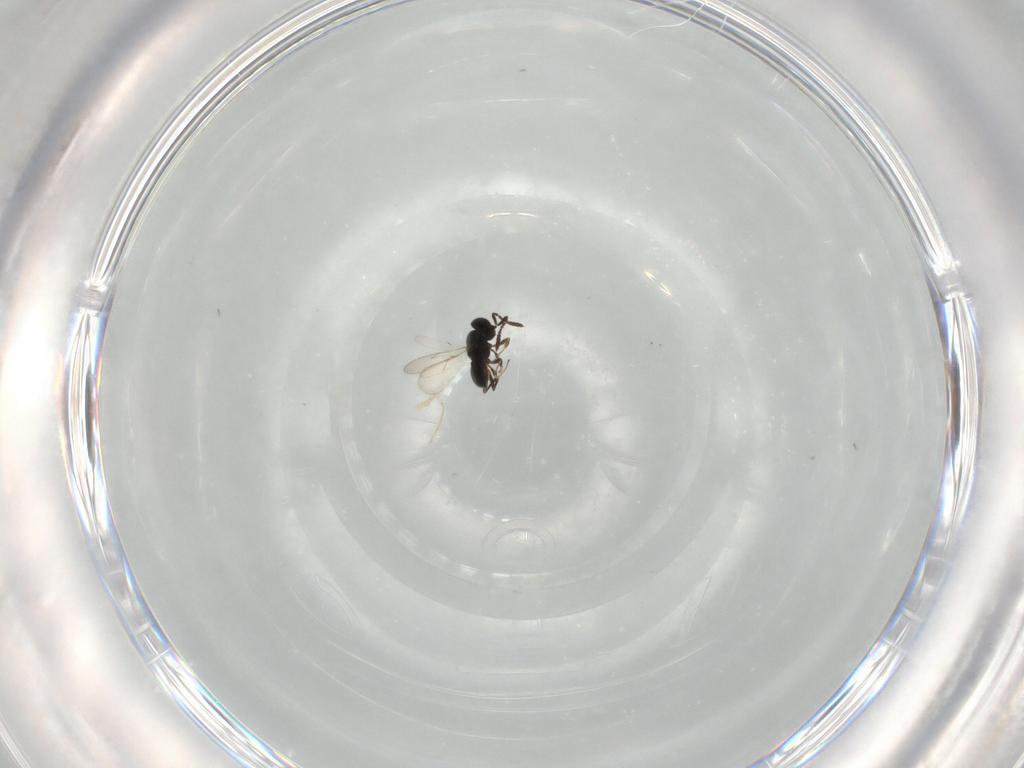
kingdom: Animalia
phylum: Arthropoda
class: Insecta
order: Hymenoptera
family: Scelionidae
